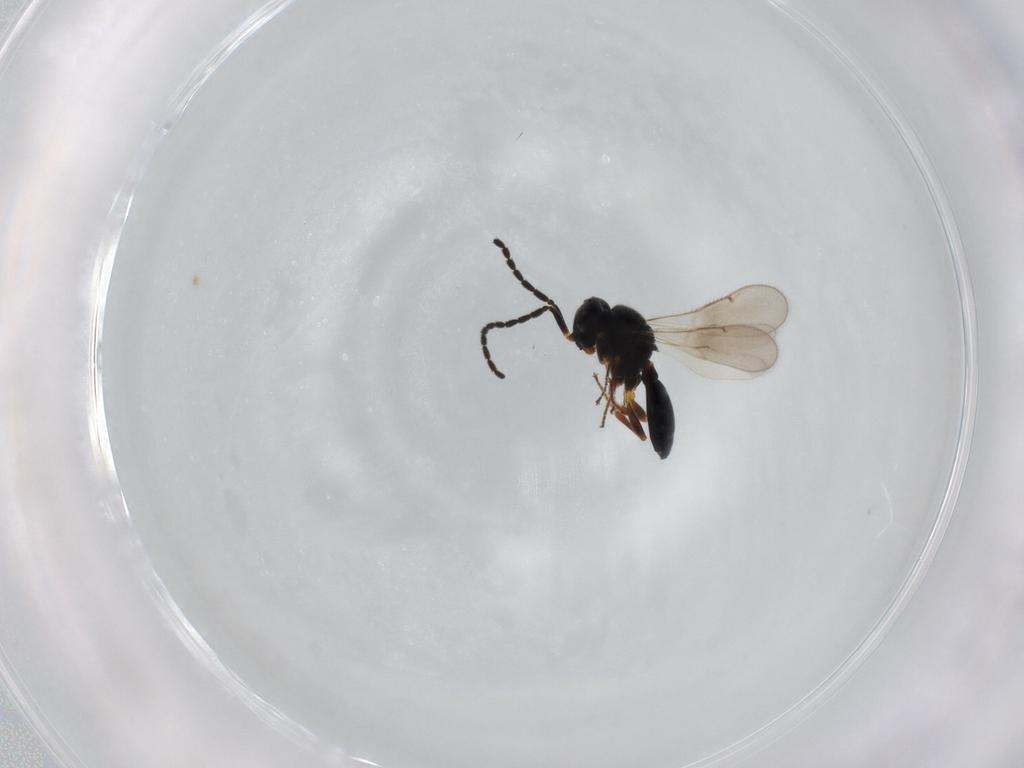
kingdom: Animalia
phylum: Arthropoda
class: Insecta
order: Hymenoptera
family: Scelionidae
